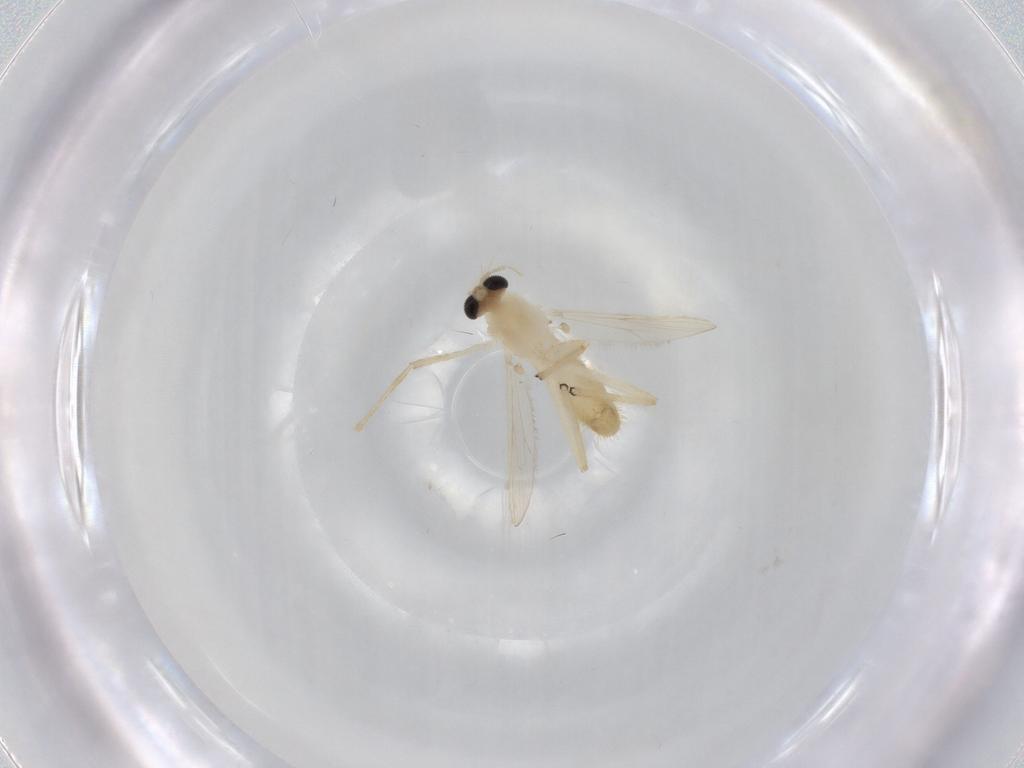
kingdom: Animalia
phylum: Arthropoda
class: Insecta
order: Diptera
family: Chironomidae
